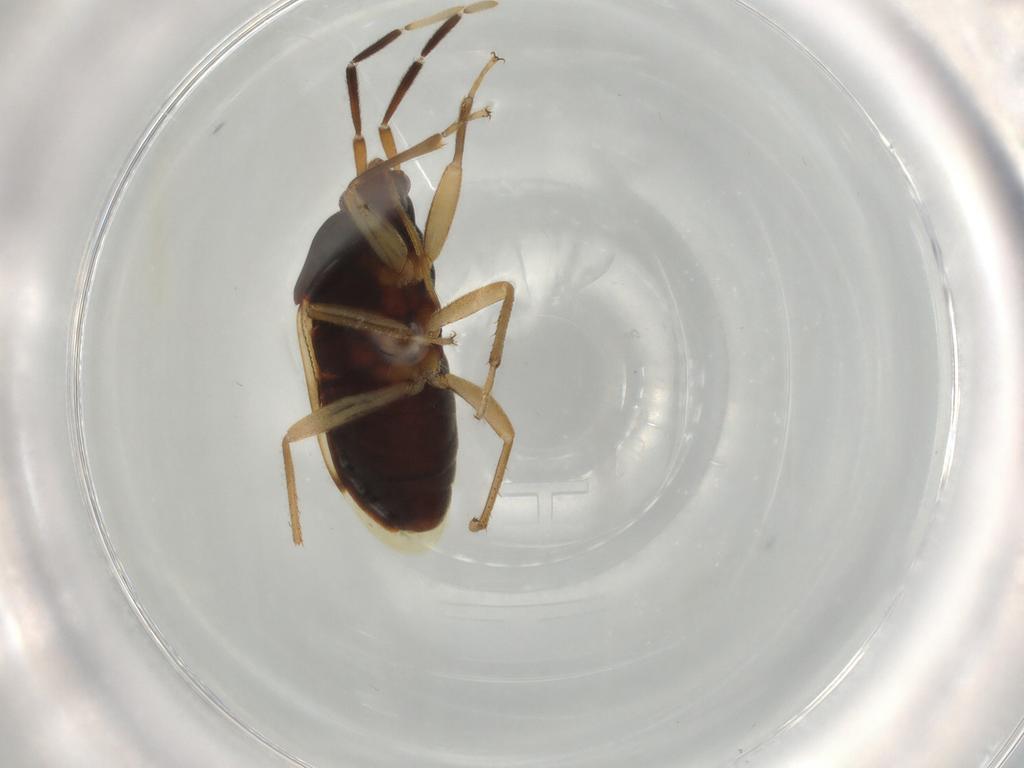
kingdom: Animalia
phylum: Arthropoda
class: Insecta
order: Hemiptera
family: Rhyparochromidae
